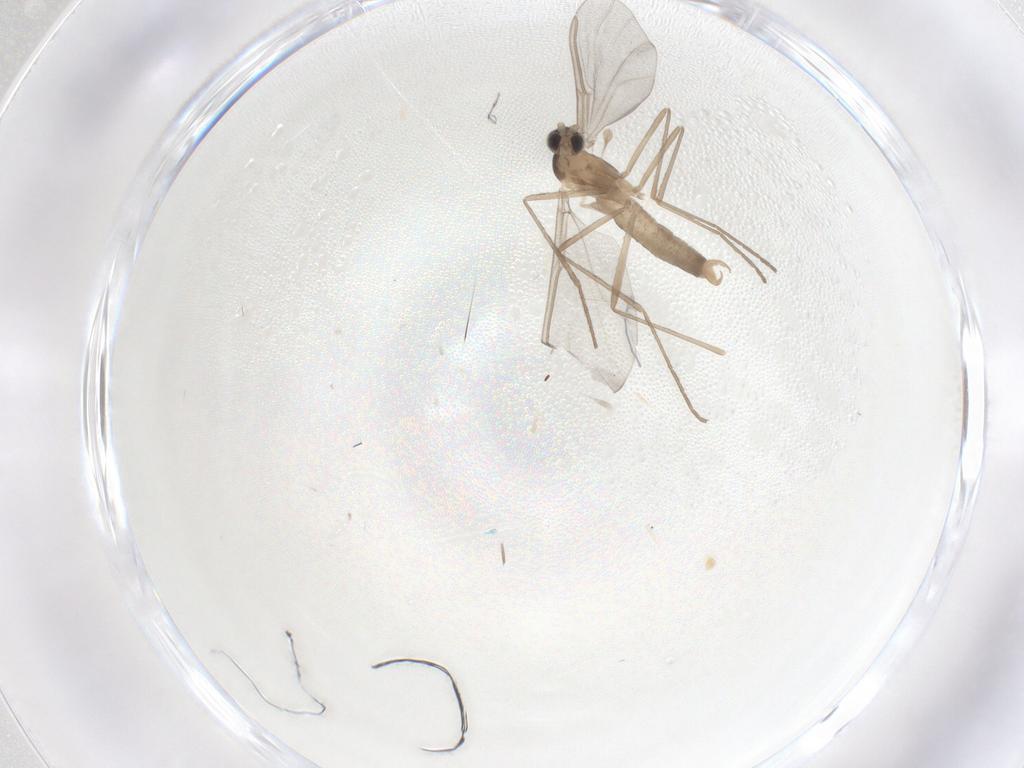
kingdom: Animalia
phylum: Arthropoda
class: Insecta
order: Diptera
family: Cecidomyiidae
